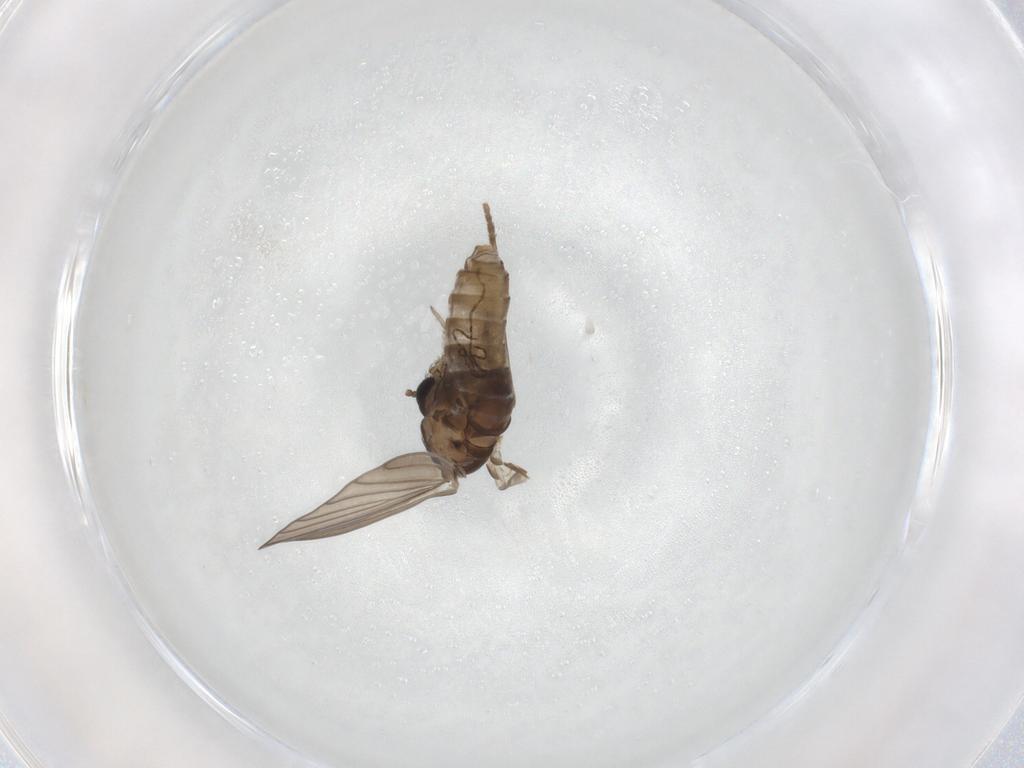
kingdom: Animalia
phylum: Arthropoda
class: Insecta
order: Diptera
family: Psychodidae
